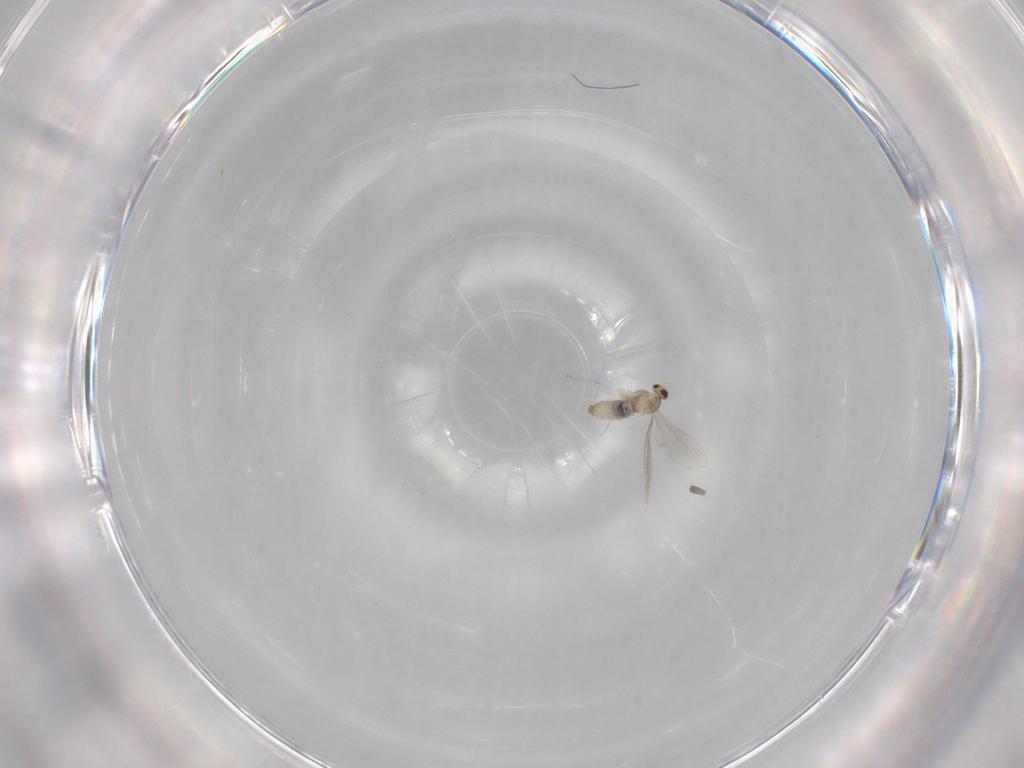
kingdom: Animalia
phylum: Arthropoda
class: Insecta
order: Diptera
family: Cecidomyiidae
